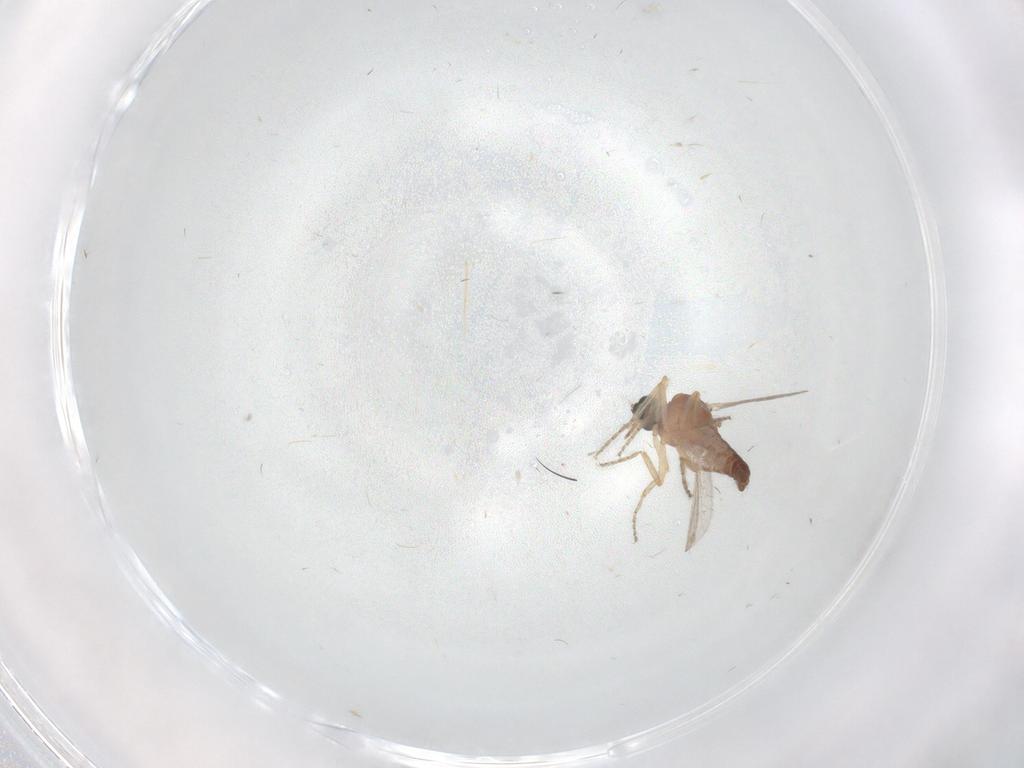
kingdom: Animalia
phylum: Arthropoda
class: Insecta
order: Diptera
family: Ceratopogonidae
